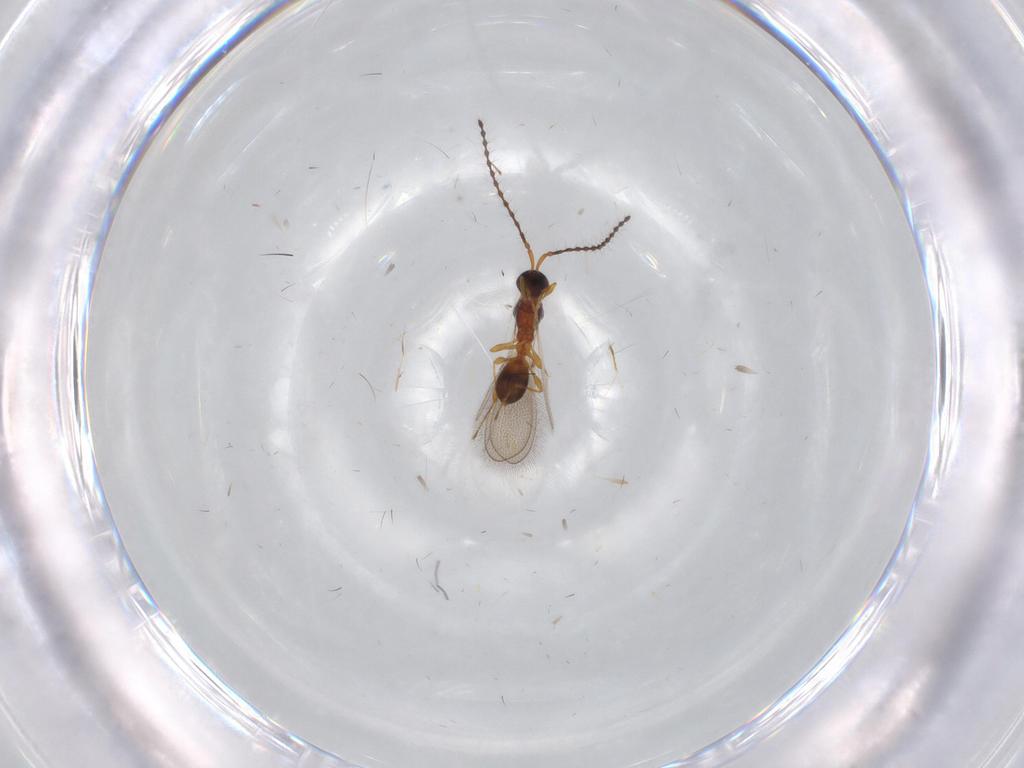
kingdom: Animalia
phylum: Arthropoda
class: Insecta
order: Hymenoptera
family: Diapriidae
